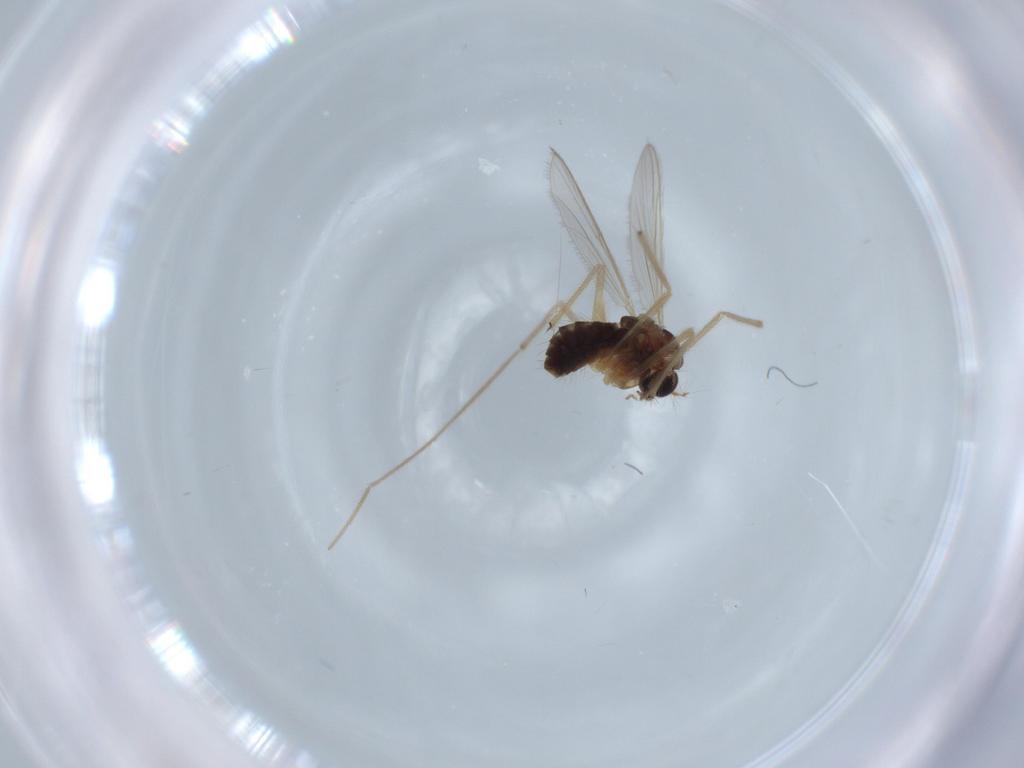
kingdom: Animalia
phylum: Arthropoda
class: Insecta
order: Diptera
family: Chironomidae
